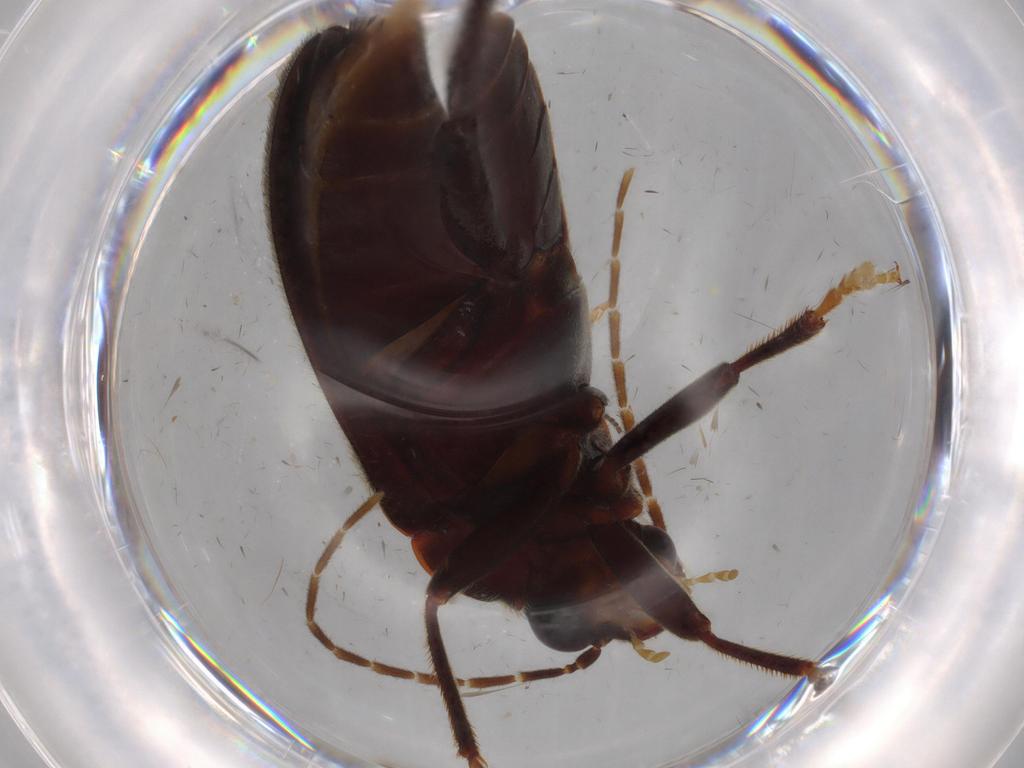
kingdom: Animalia
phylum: Arthropoda
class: Insecta
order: Coleoptera
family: Ptilodactylidae
